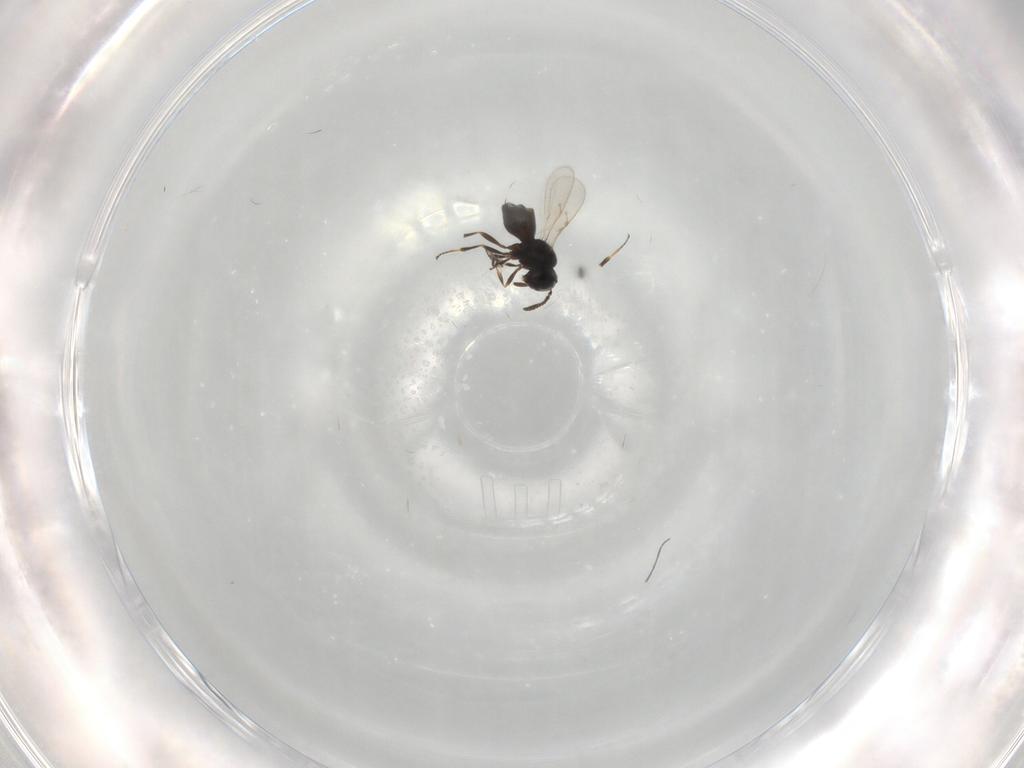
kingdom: Animalia
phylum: Arthropoda
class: Insecta
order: Hymenoptera
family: Scelionidae
